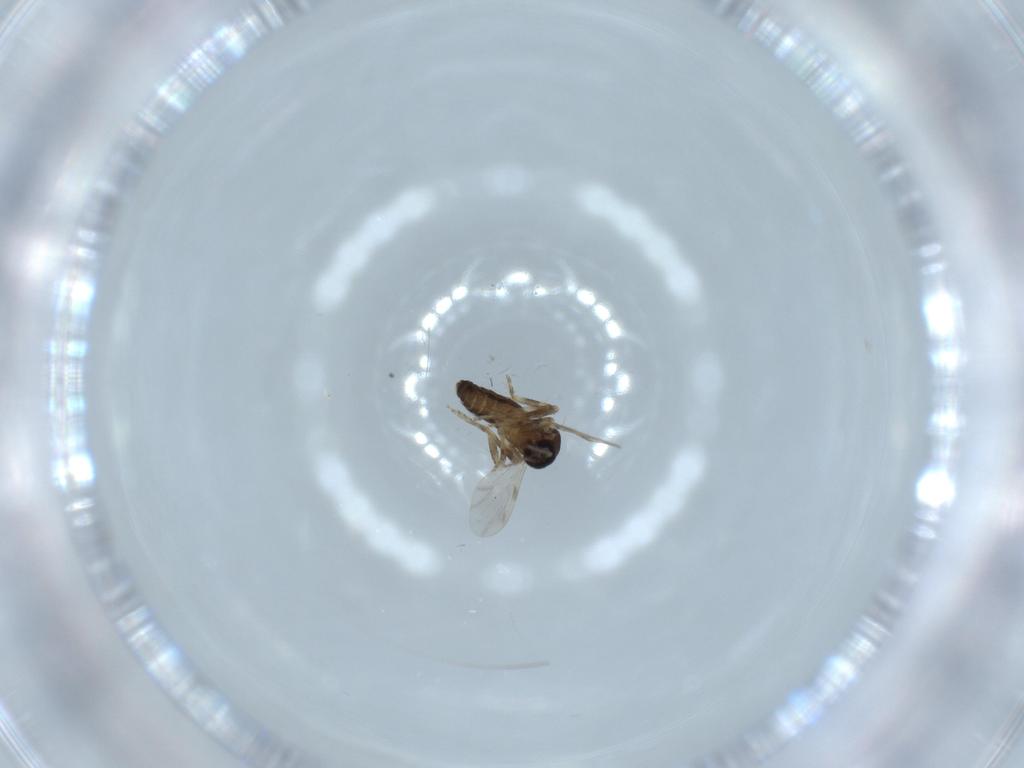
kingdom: Animalia
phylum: Arthropoda
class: Insecta
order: Diptera
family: Ceratopogonidae
